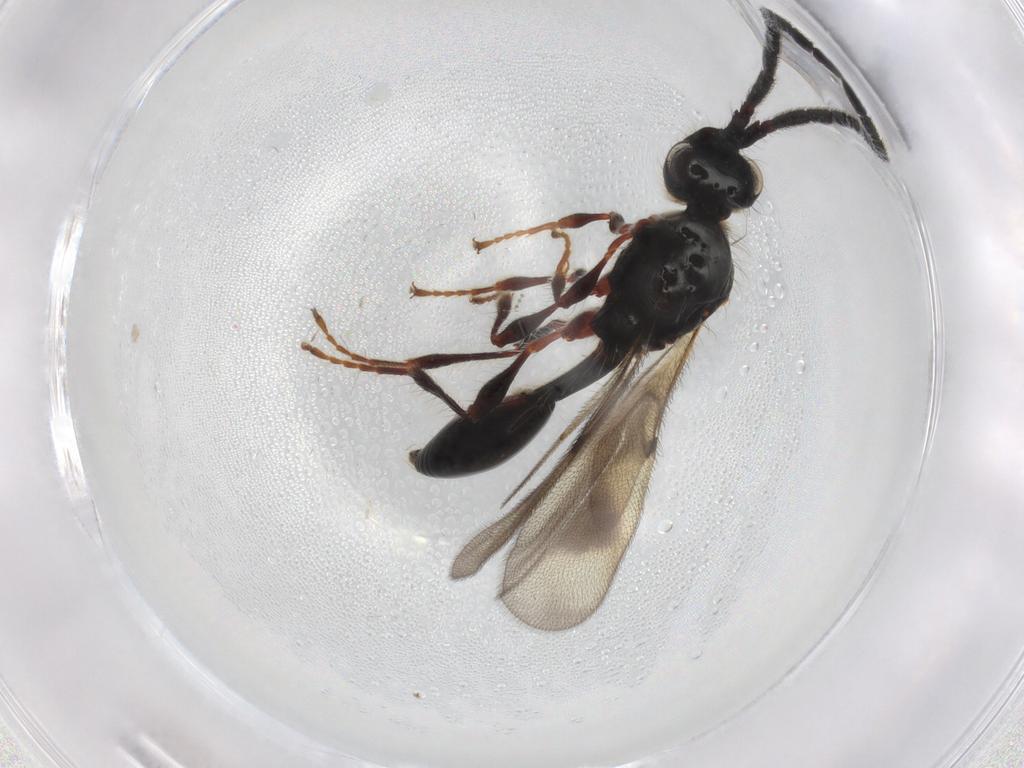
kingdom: Animalia
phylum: Arthropoda
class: Insecta
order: Hymenoptera
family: Diapriidae
